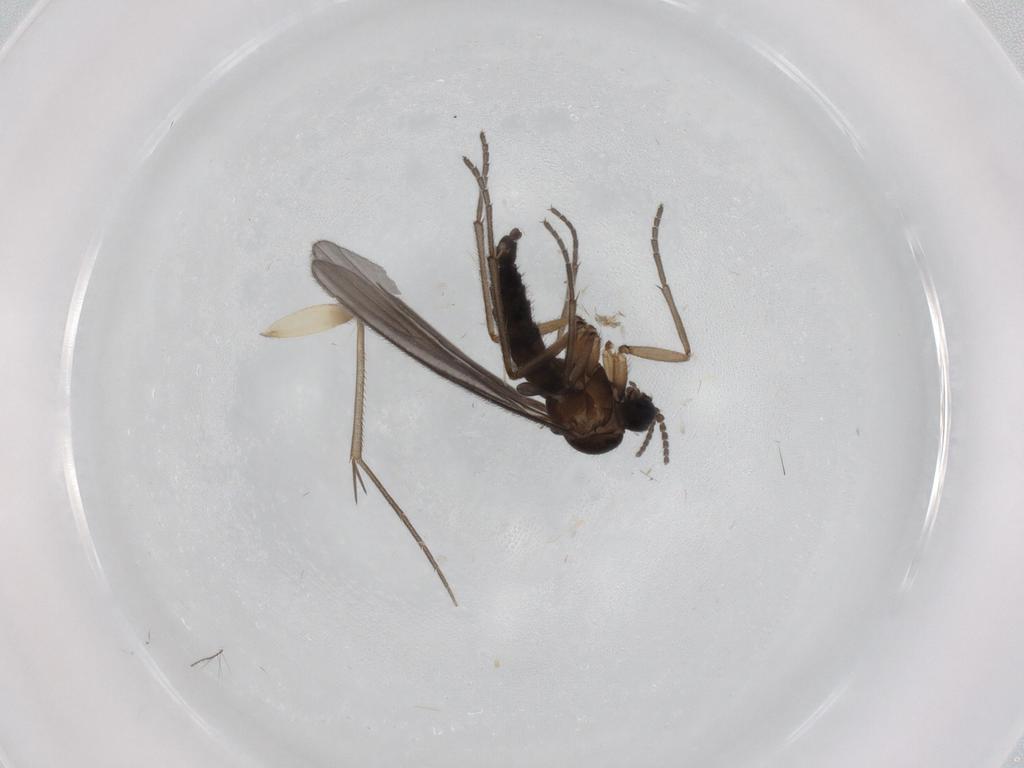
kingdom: Animalia
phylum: Arthropoda
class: Insecta
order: Diptera
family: Sciaridae
